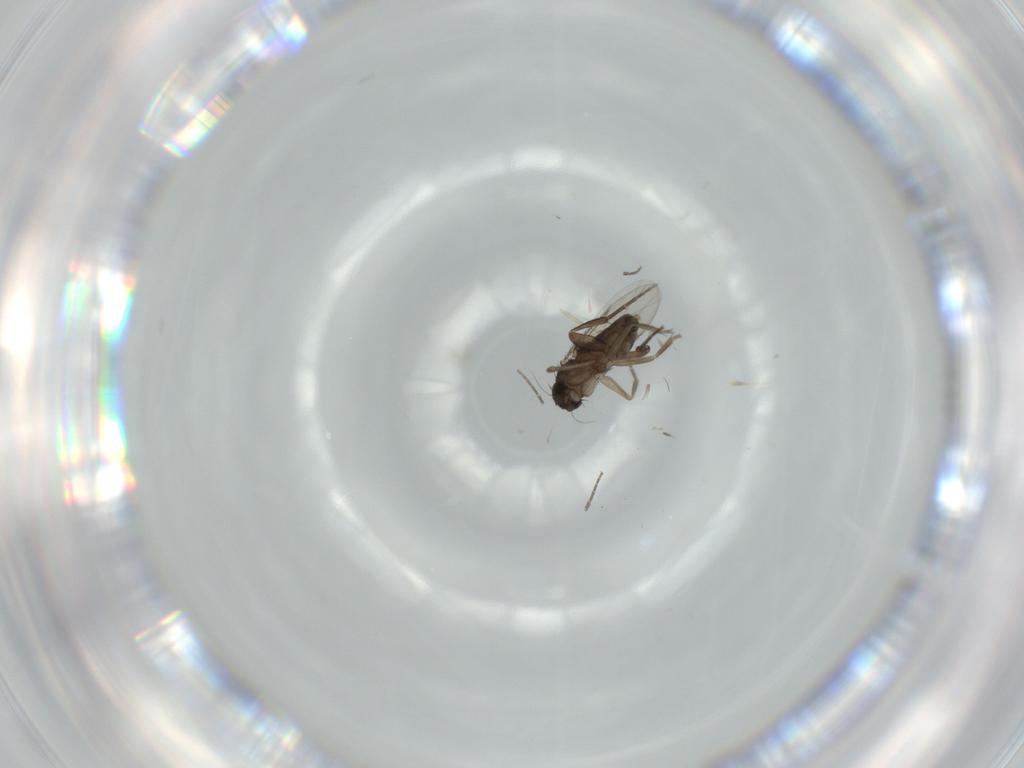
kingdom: Animalia
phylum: Arthropoda
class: Insecta
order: Diptera
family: Phoridae
